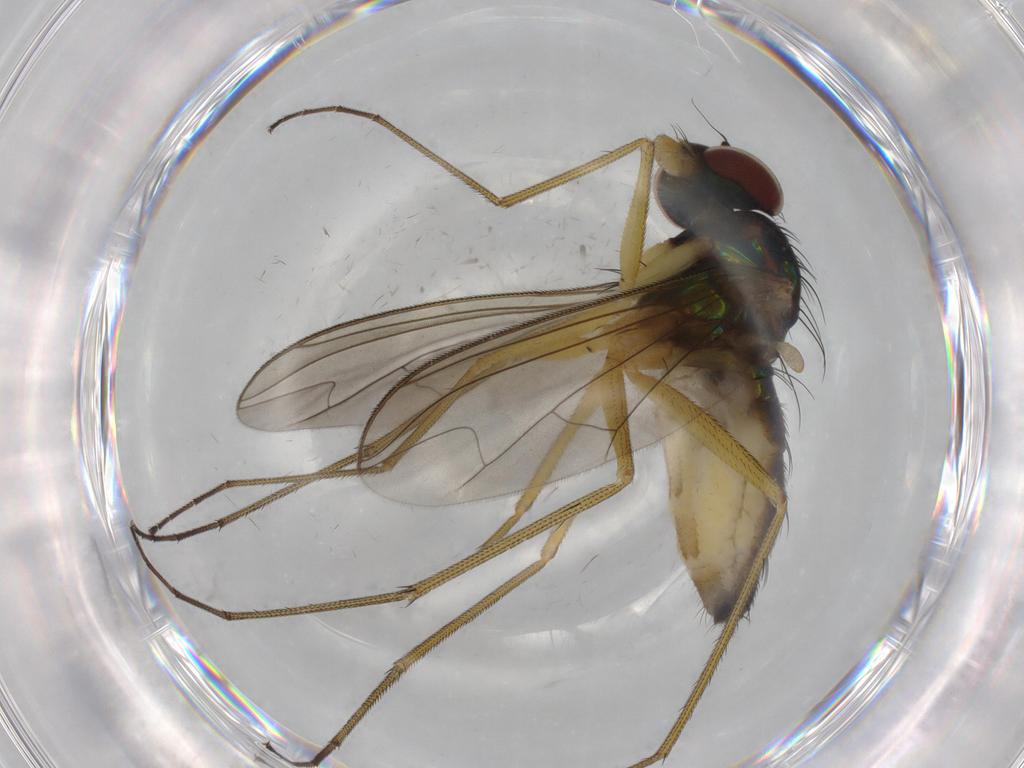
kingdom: Animalia
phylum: Arthropoda
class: Insecta
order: Diptera
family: Dolichopodidae
